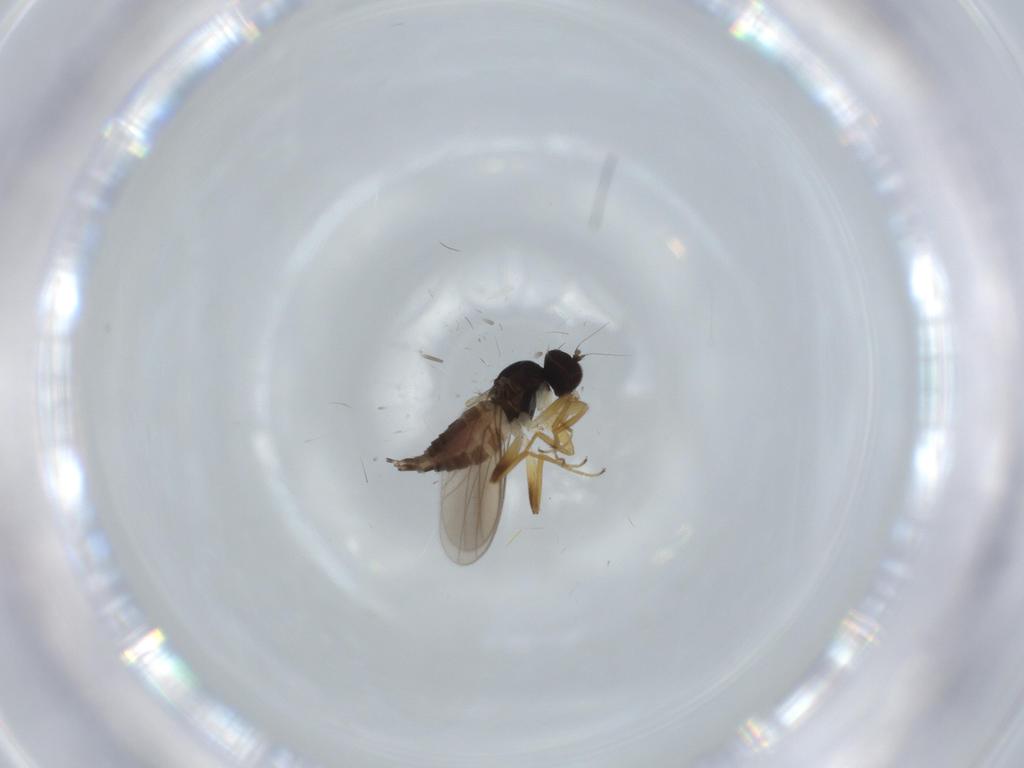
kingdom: Animalia
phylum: Arthropoda
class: Insecta
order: Diptera
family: Hybotidae
